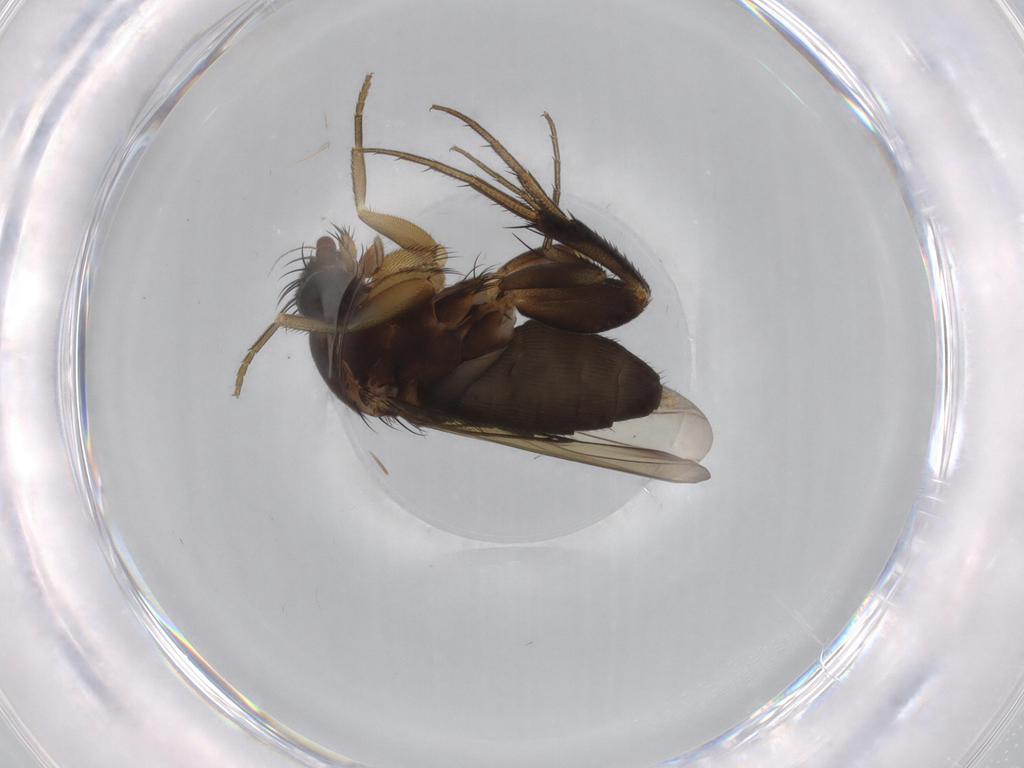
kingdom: Animalia
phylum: Arthropoda
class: Insecta
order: Diptera
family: Phoridae
